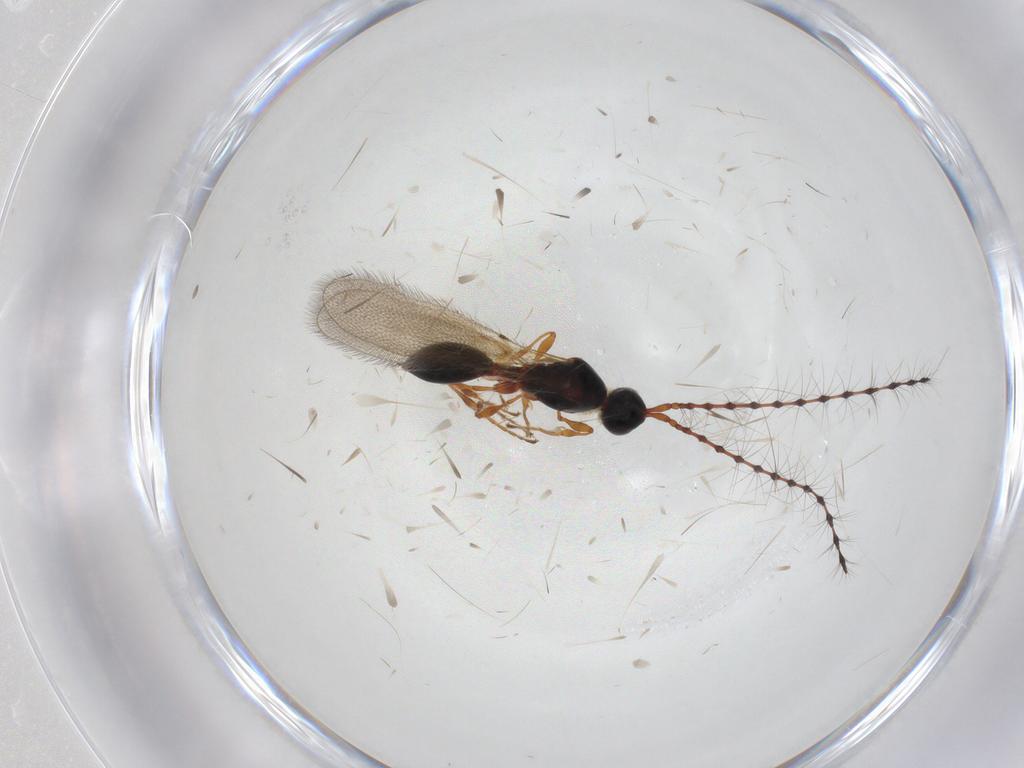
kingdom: Animalia
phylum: Arthropoda
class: Insecta
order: Hymenoptera
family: Diapriidae
